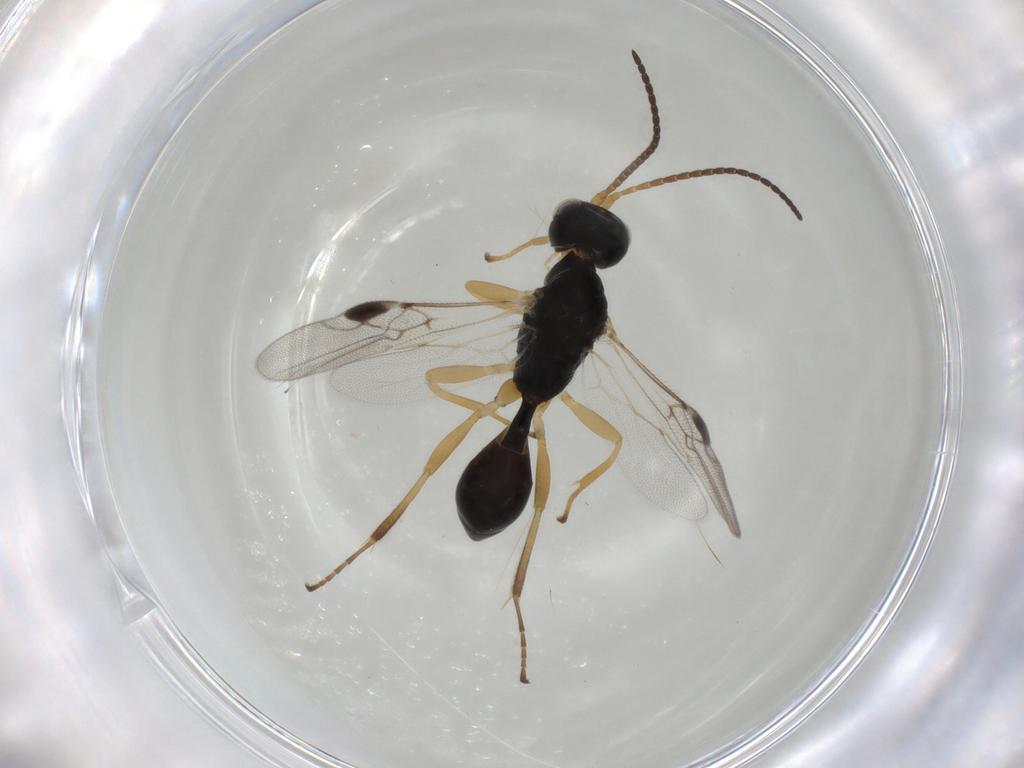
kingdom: Animalia
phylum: Arthropoda
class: Insecta
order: Hymenoptera
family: Braconidae
